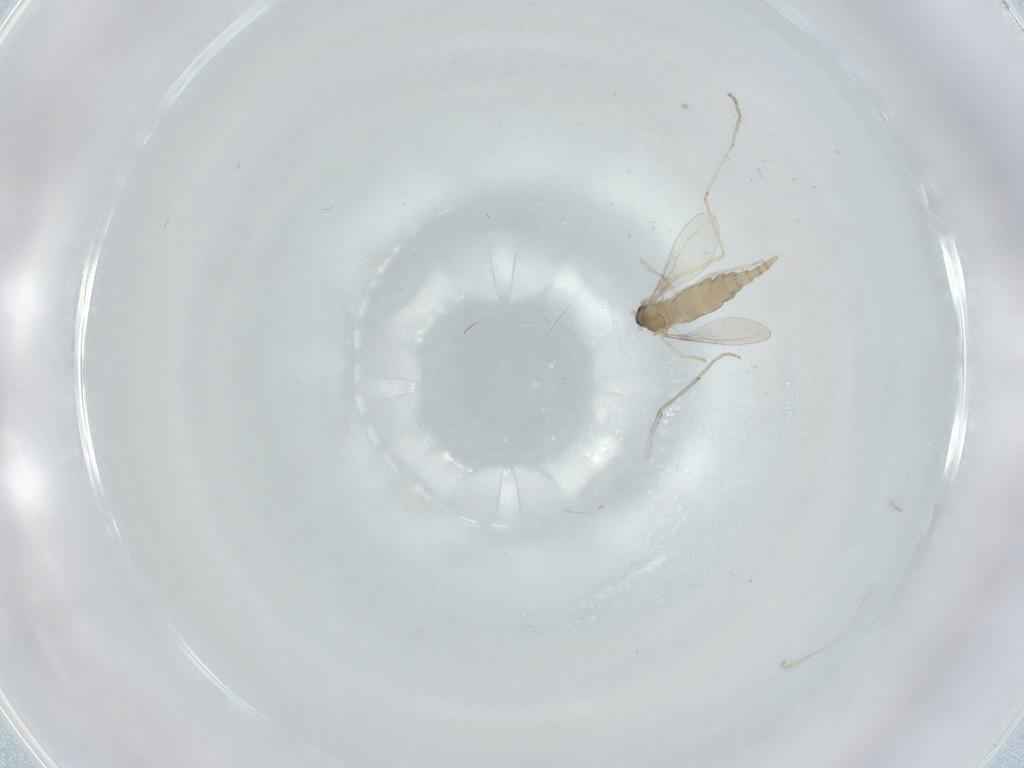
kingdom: Animalia
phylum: Arthropoda
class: Insecta
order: Diptera
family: Cecidomyiidae
